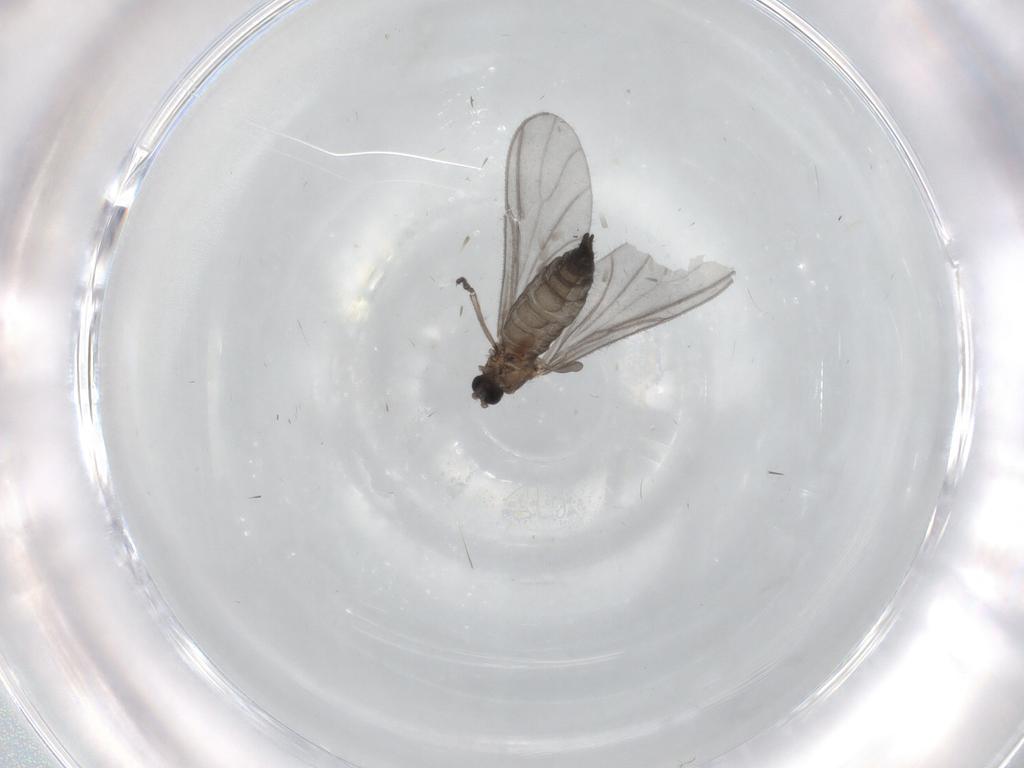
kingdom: Animalia
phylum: Arthropoda
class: Insecta
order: Diptera
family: Sciaridae
